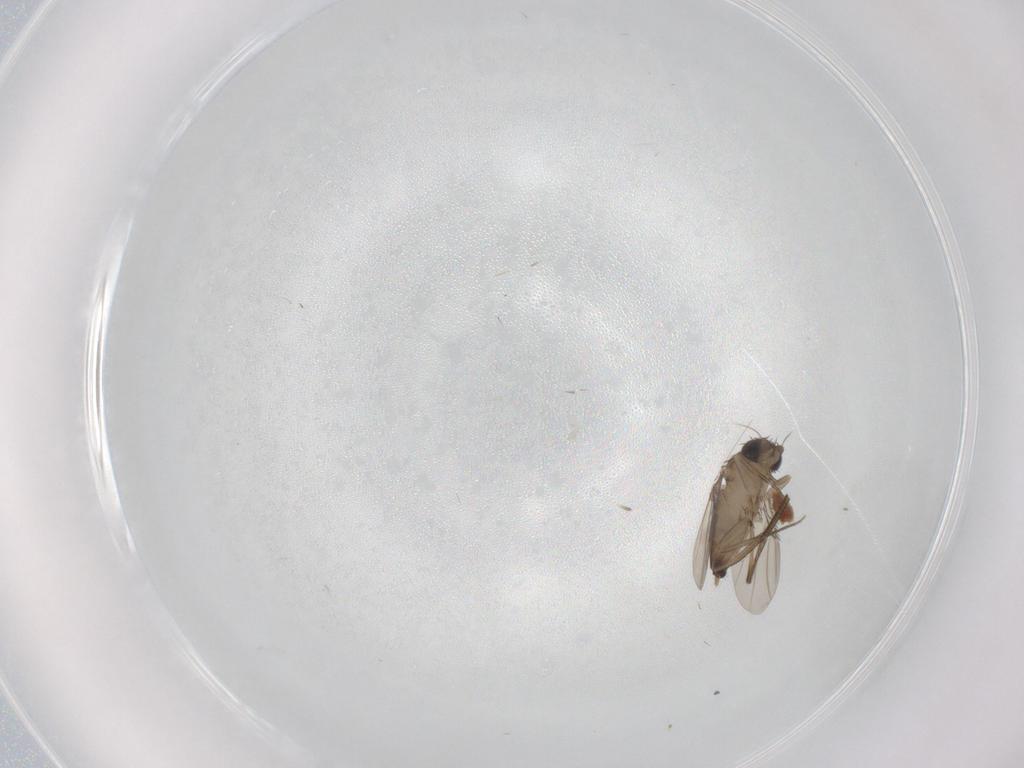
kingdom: Animalia
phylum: Arthropoda
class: Insecta
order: Diptera
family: Phoridae
